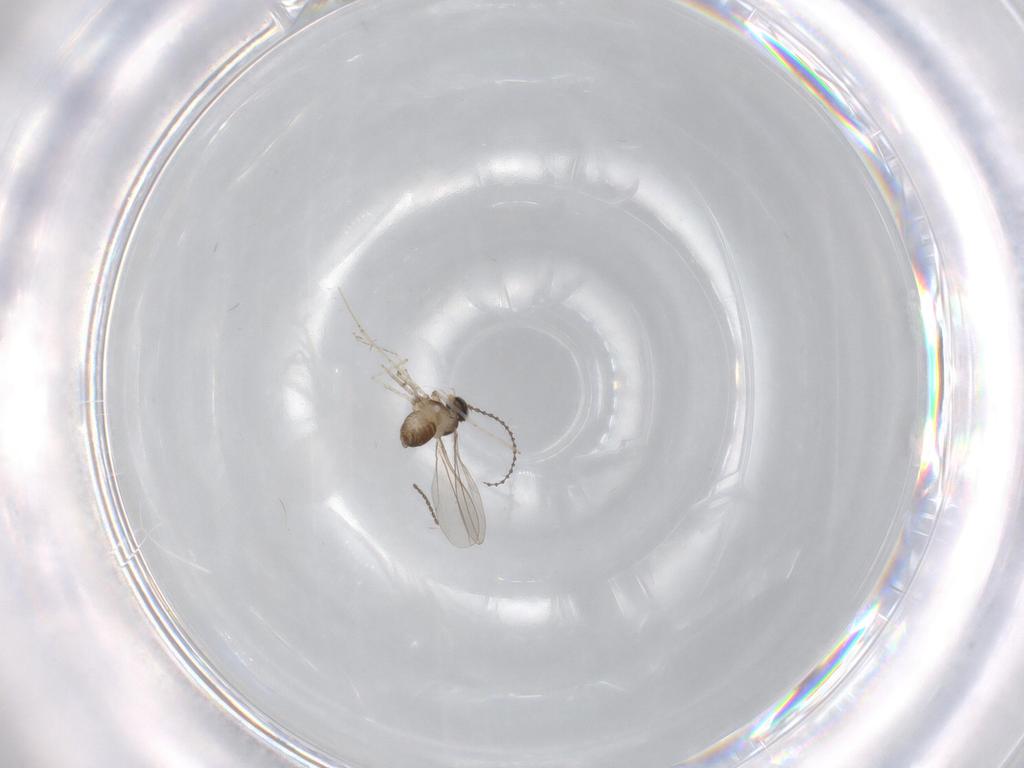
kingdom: Animalia
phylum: Arthropoda
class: Insecta
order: Diptera
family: Cecidomyiidae
